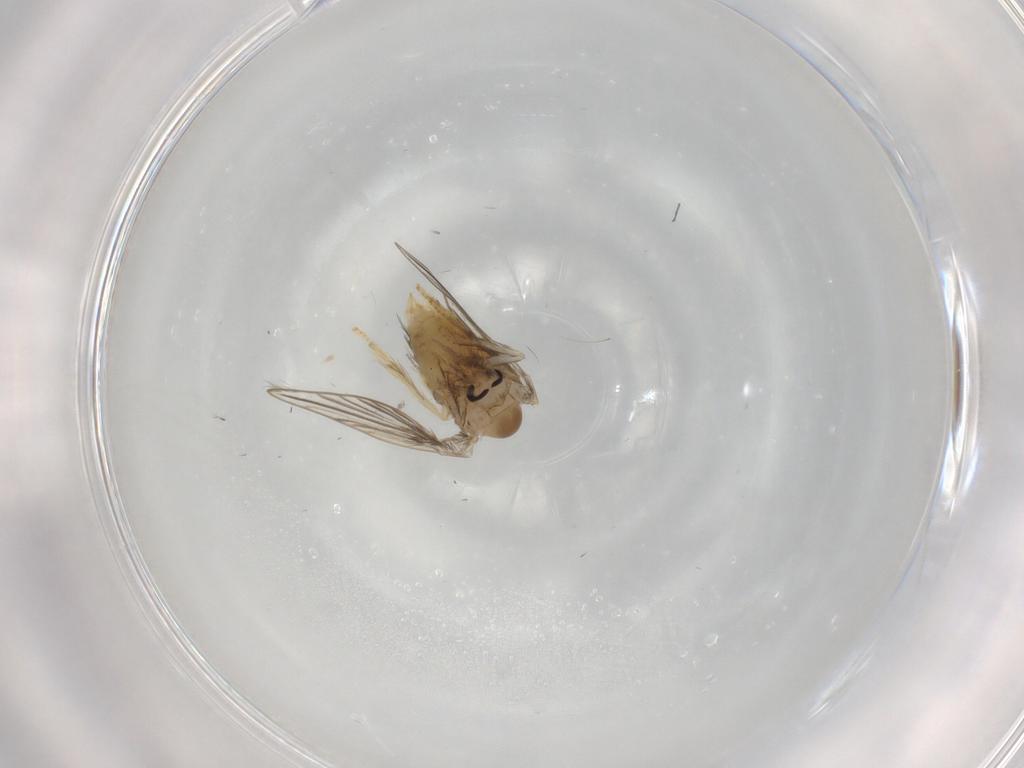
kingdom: Animalia
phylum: Arthropoda
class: Insecta
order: Diptera
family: Psychodidae
